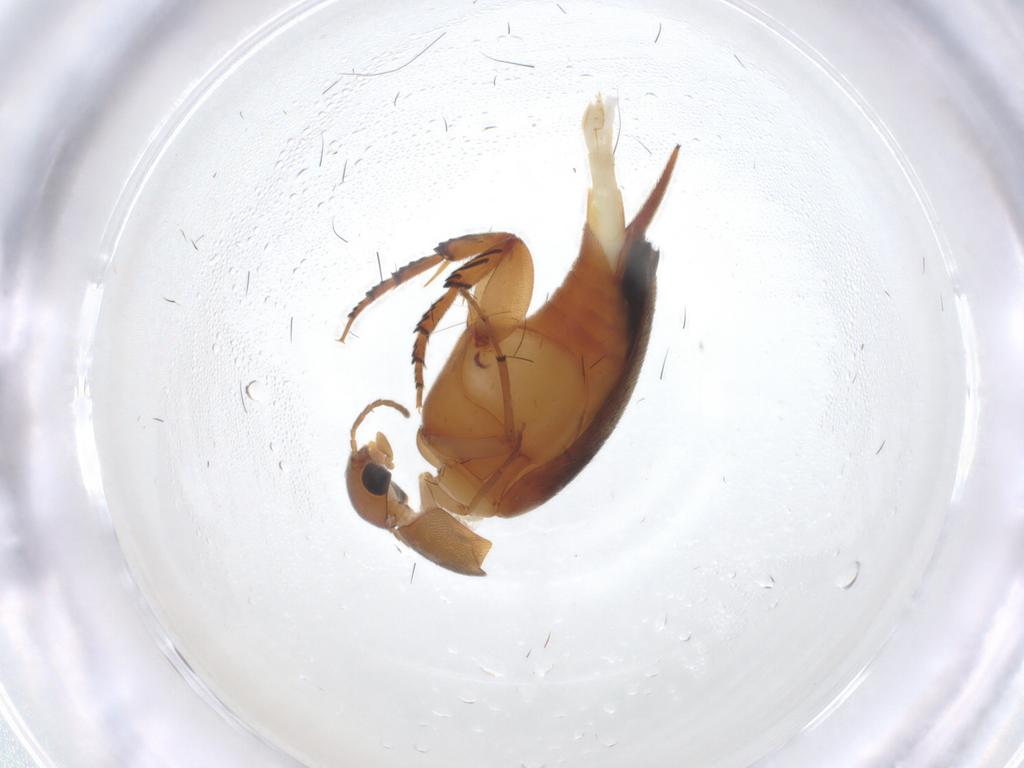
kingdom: Animalia
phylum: Arthropoda
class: Insecta
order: Coleoptera
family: Mordellidae
